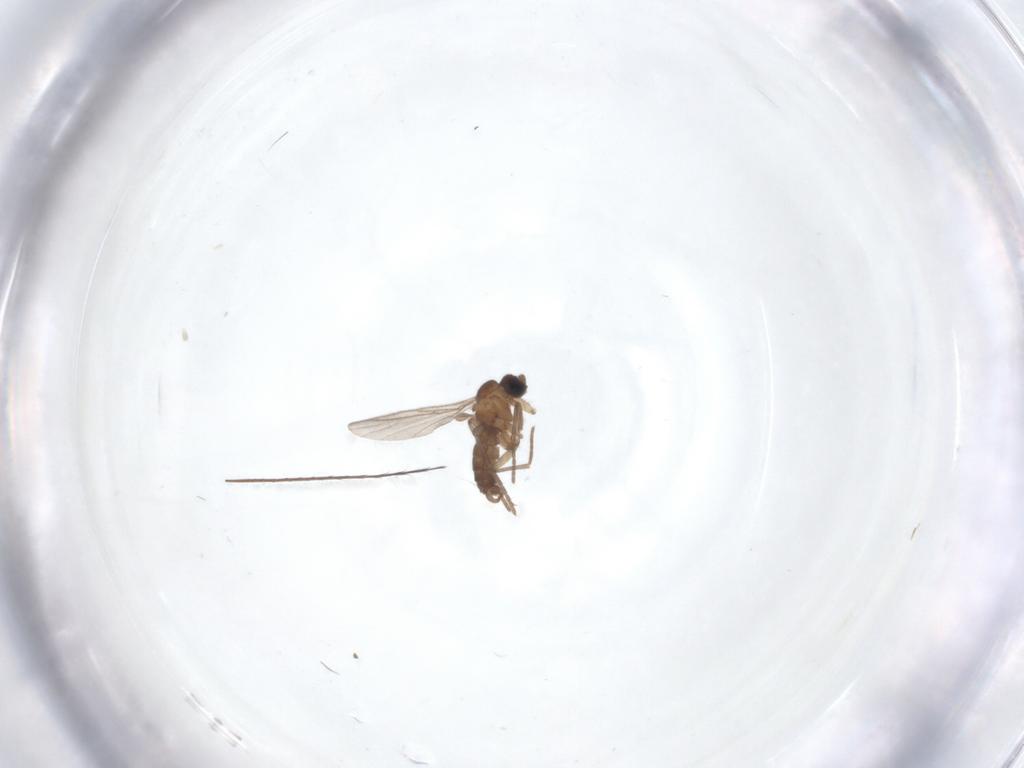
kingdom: Animalia
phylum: Arthropoda
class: Insecta
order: Diptera
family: Psychodidae
